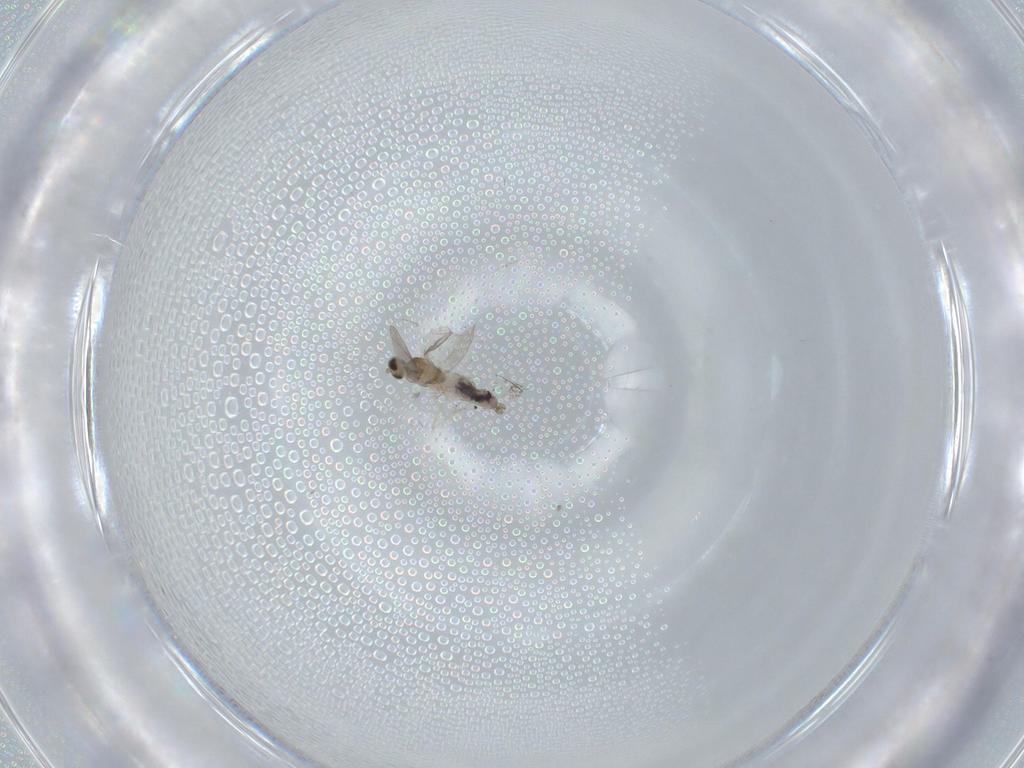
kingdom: Animalia
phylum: Arthropoda
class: Insecta
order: Diptera
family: Cecidomyiidae
